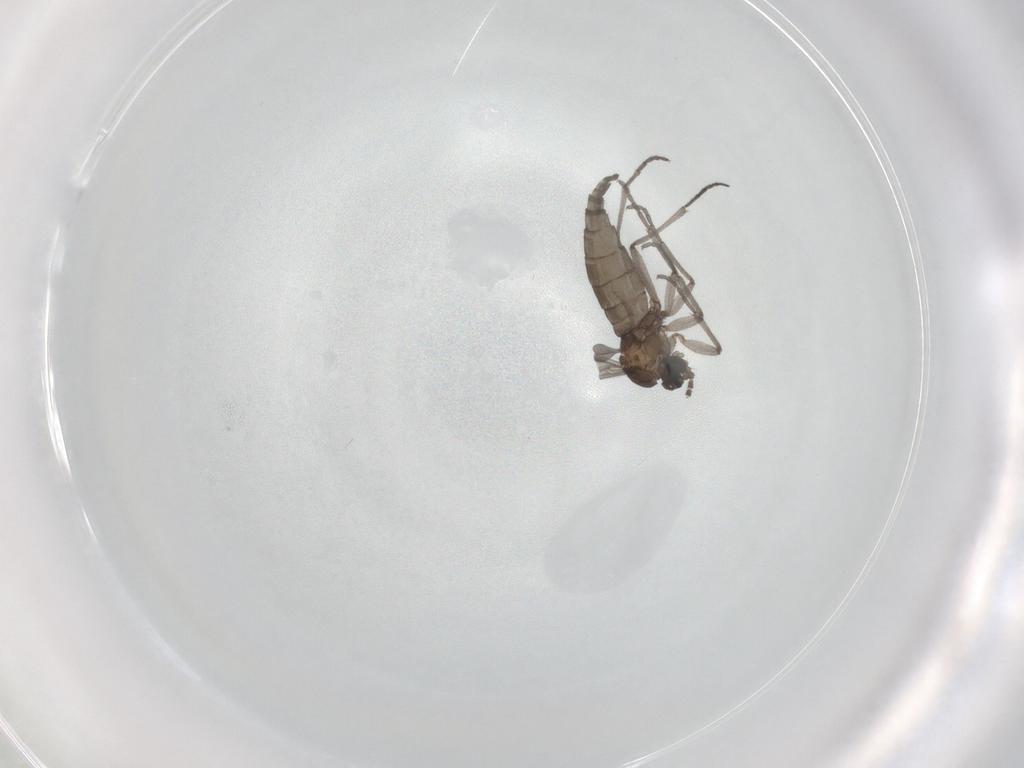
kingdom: Animalia
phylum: Arthropoda
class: Insecta
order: Diptera
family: Sciaridae
